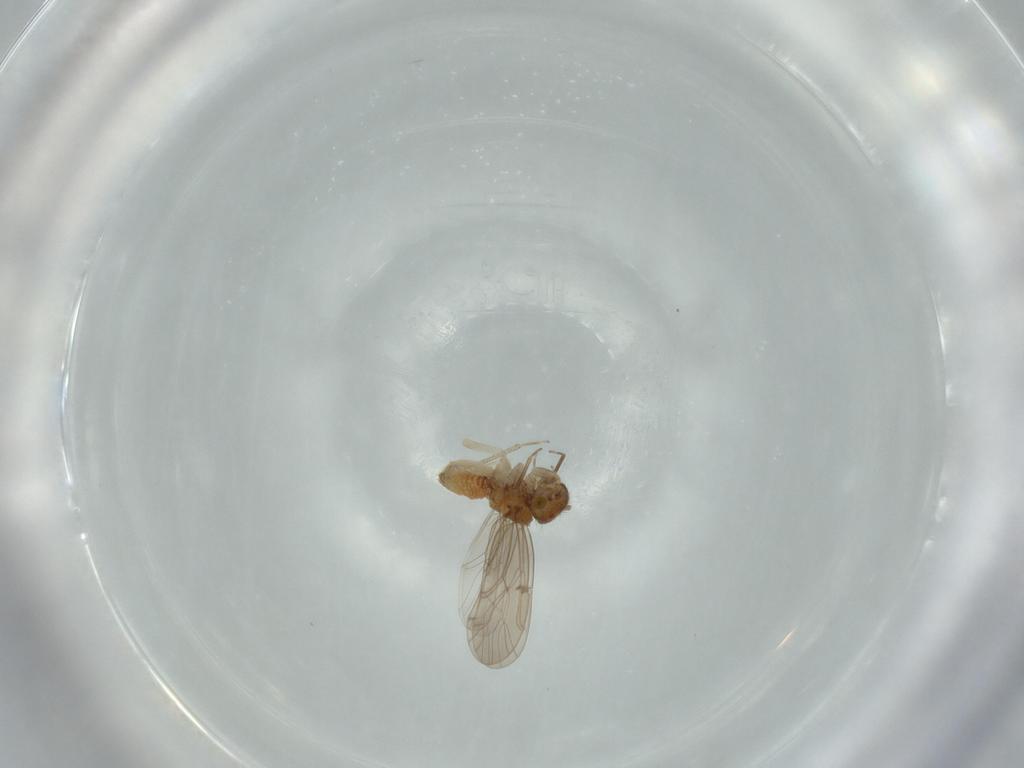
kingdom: Animalia
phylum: Arthropoda
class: Insecta
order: Psocodea
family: Ectopsocidae
